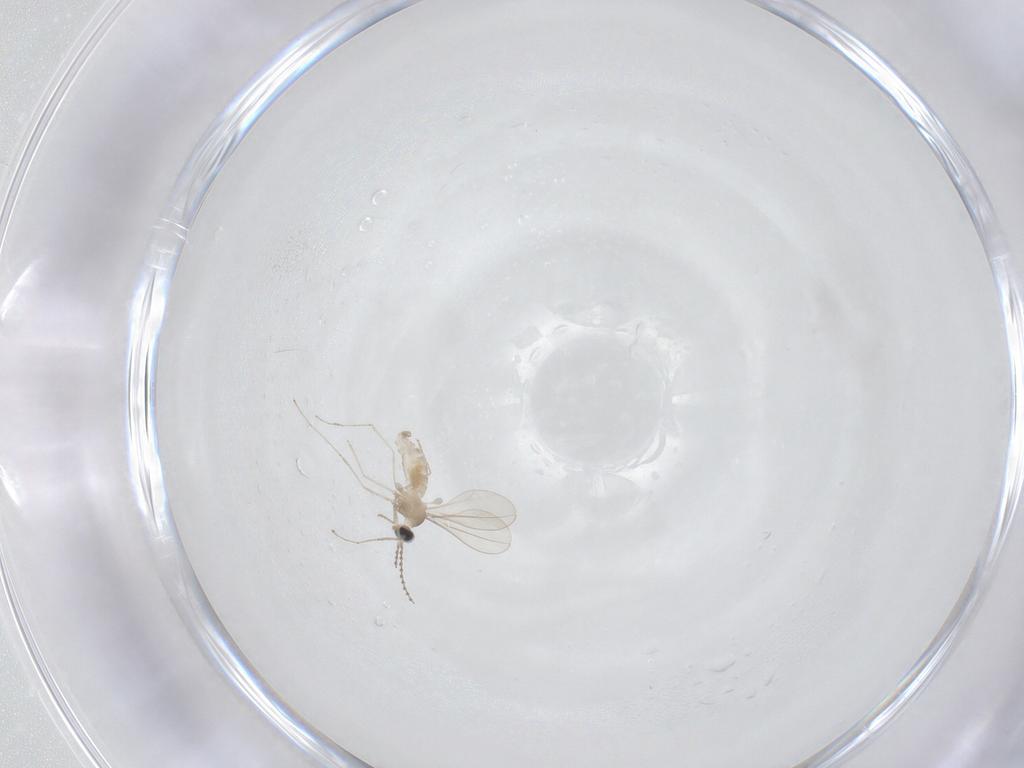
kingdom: Animalia
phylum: Arthropoda
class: Insecta
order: Diptera
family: Cecidomyiidae
